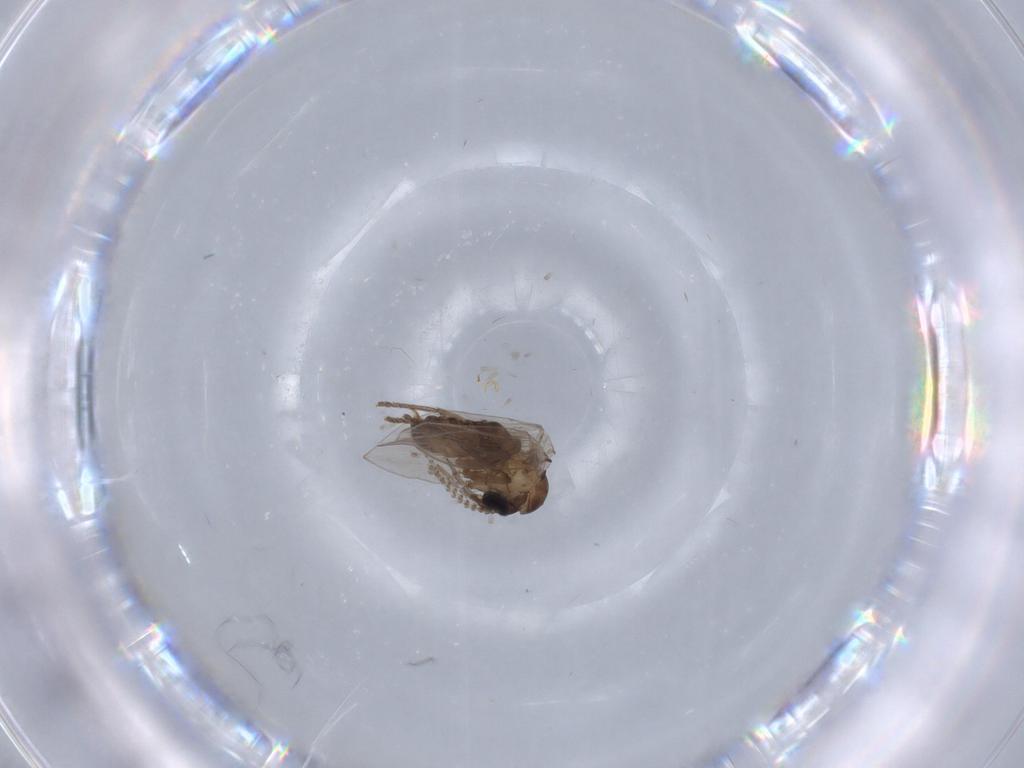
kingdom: Animalia
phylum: Arthropoda
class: Insecta
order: Diptera
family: Psychodidae
